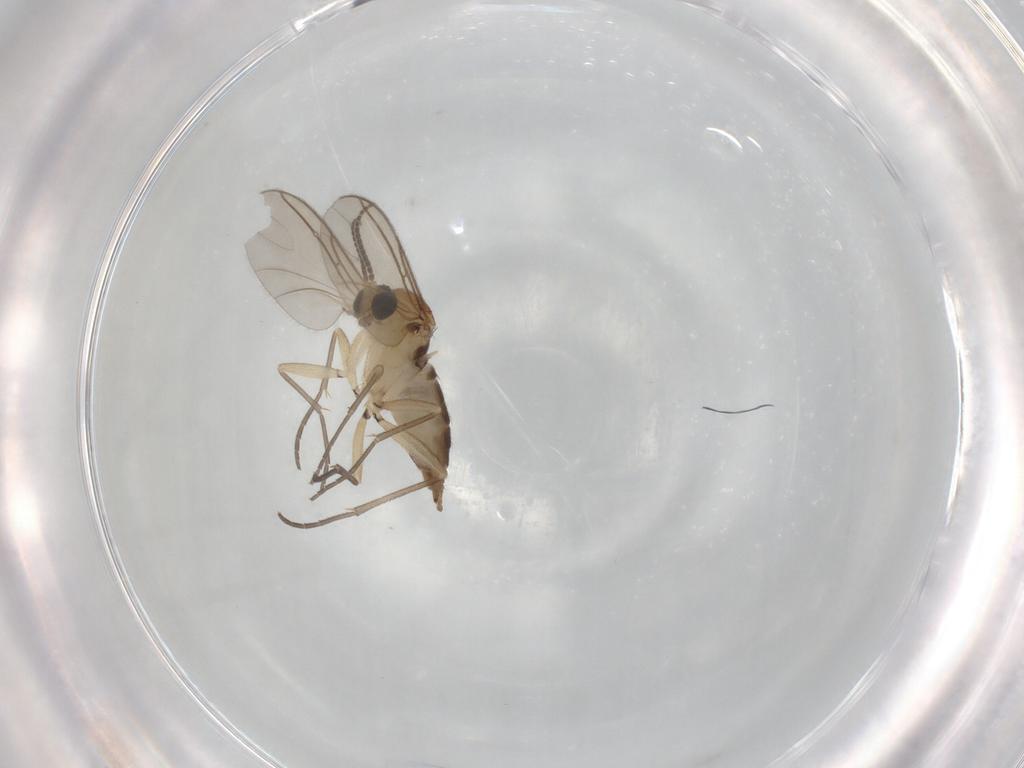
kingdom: Animalia
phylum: Arthropoda
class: Insecta
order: Diptera
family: Sciaridae
